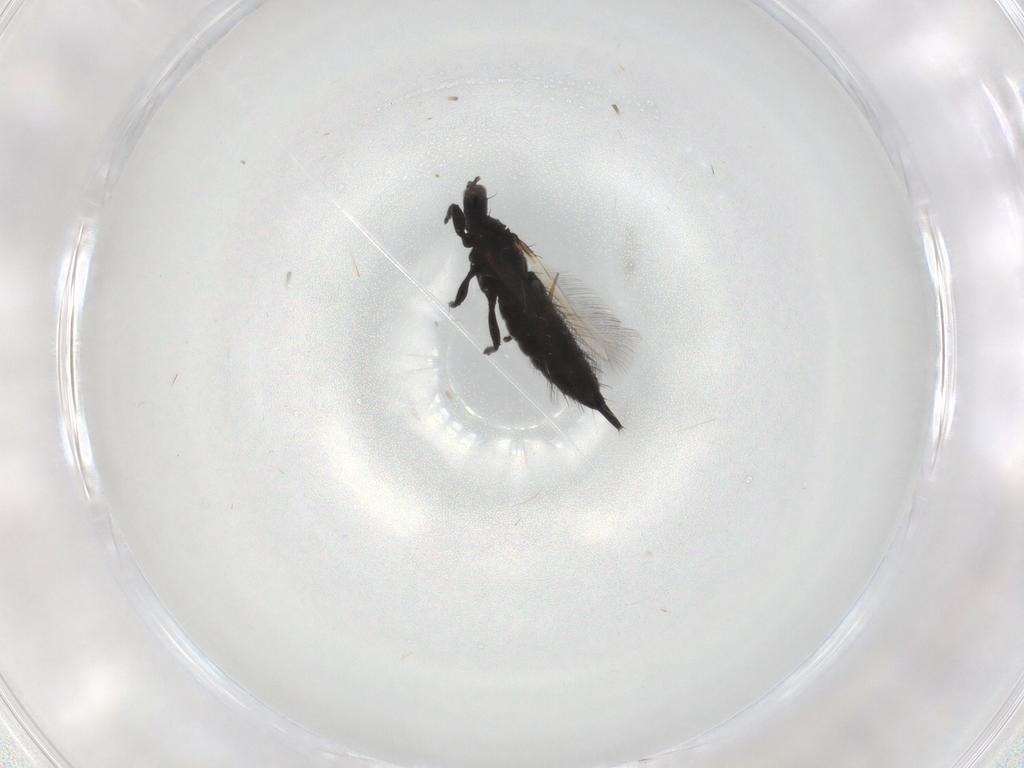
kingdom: Animalia
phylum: Arthropoda
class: Insecta
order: Thysanoptera
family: Phlaeothripidae
